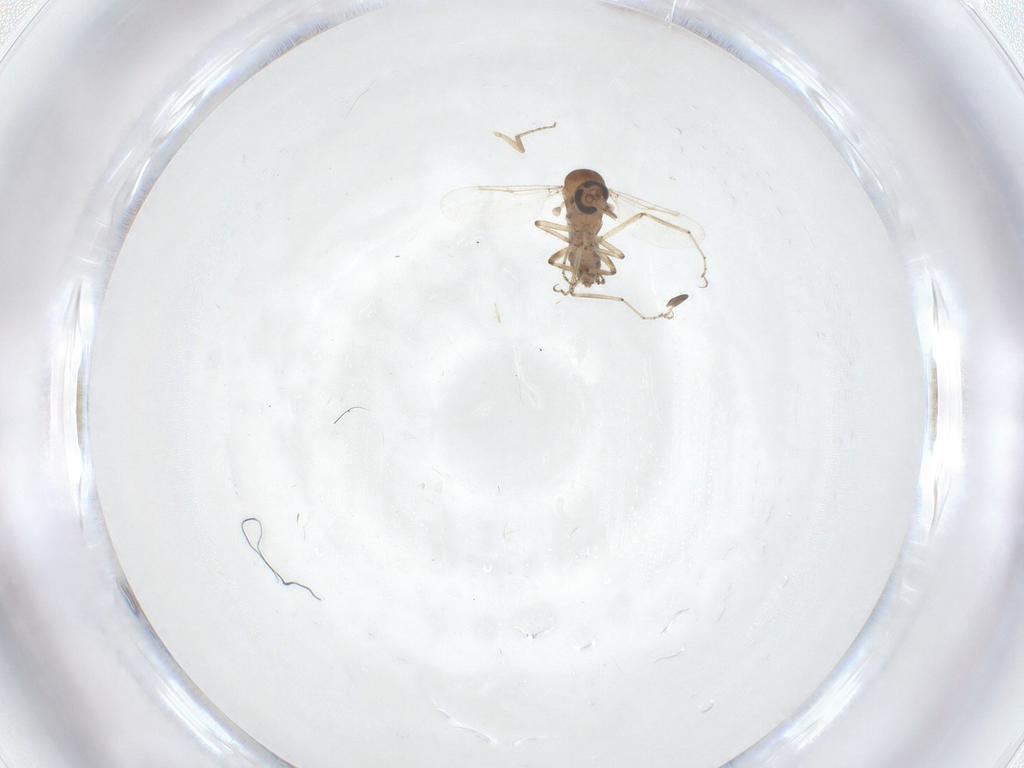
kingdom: Animalia
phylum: Arthropoda
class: Insecta
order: Diptera
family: Ceratopogonidae
